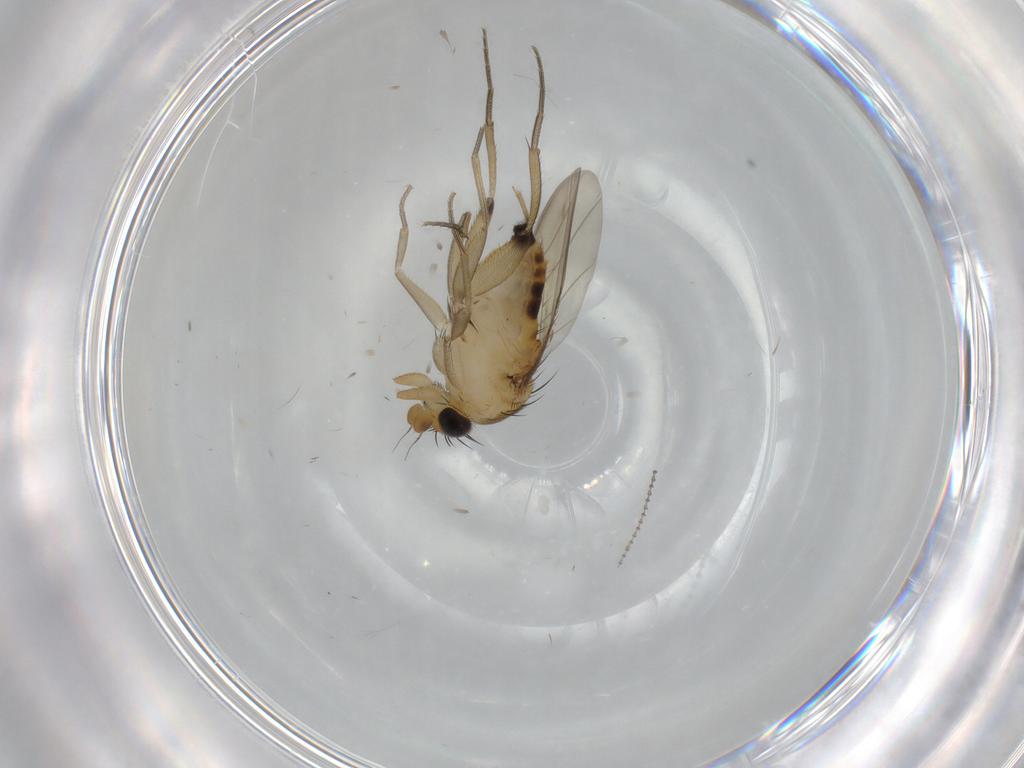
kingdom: Animalia
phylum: Arthropoda
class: Insecta
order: Diptera
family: Phoridae
